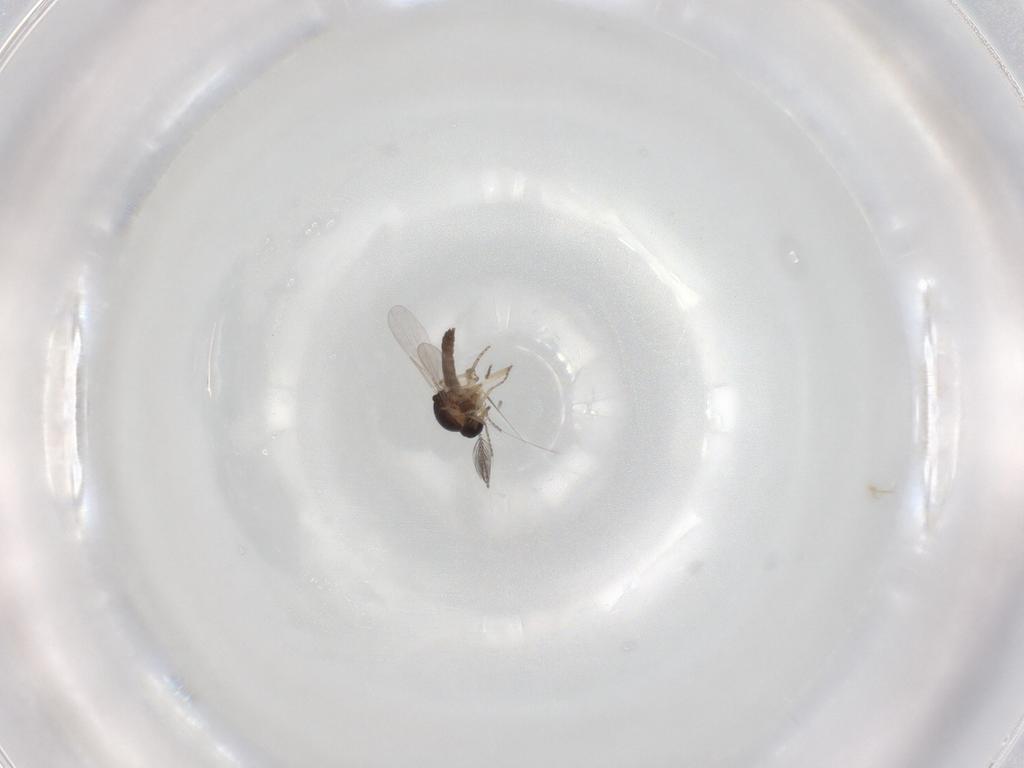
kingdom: Animalia
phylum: Arthropoda
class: Insecta
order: Diptera
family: Ceratopogonidae
